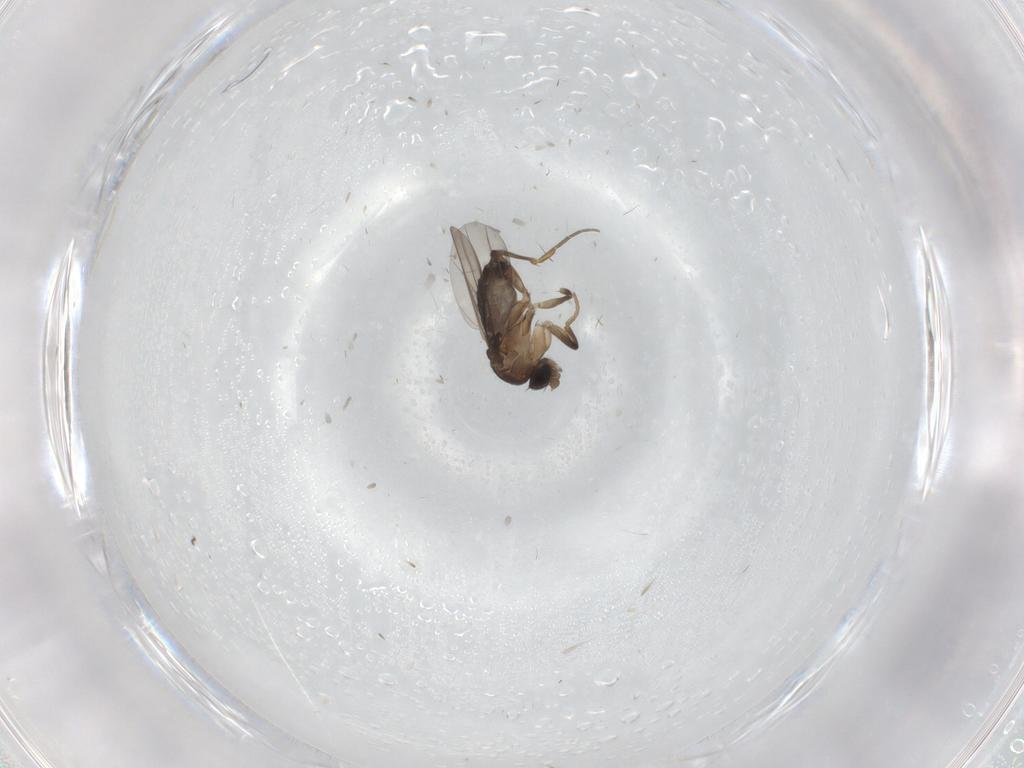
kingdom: Animalia
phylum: Arthropoda
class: Insecta
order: Diptera
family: Phoridae
